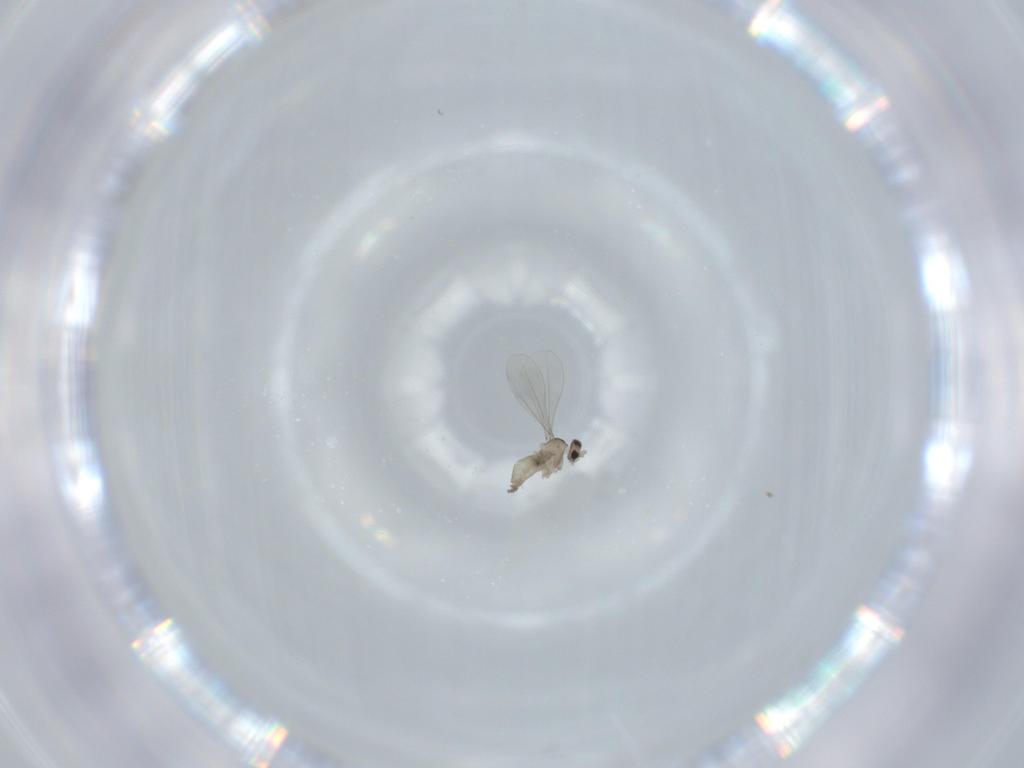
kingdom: Animalia
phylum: Arthropoda
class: Insecta
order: Diptera
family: Cecidomyiidae
